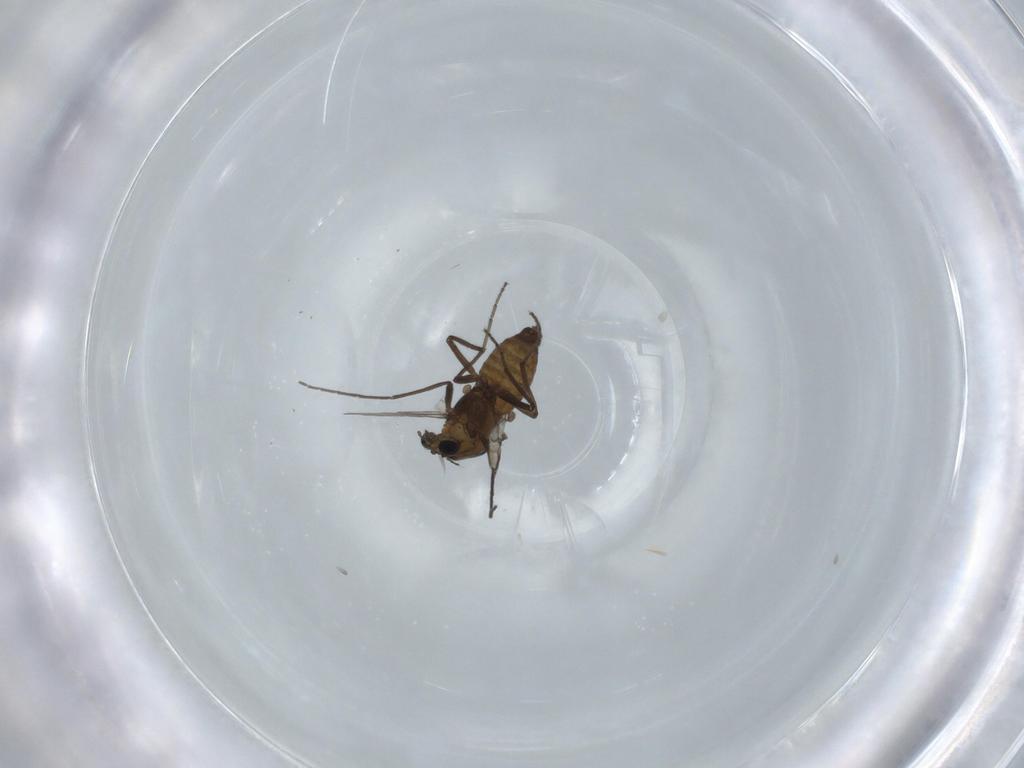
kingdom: Animalia
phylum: Arthropoda
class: Insecta
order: Diptera
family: Chironomidae
